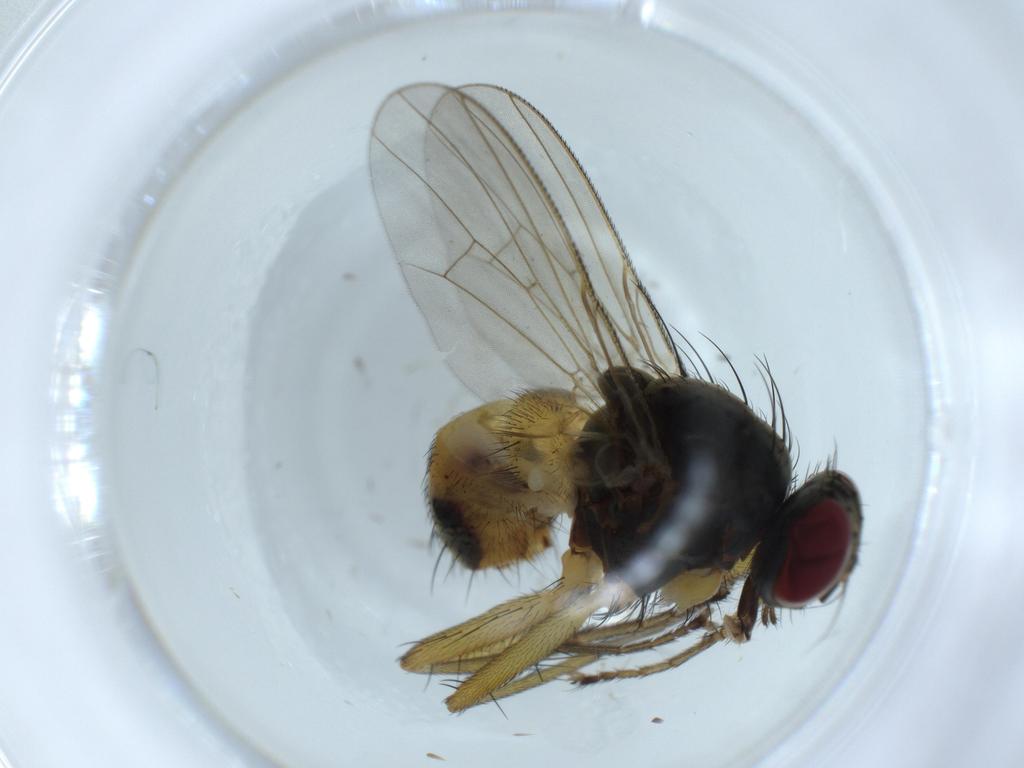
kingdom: Animalia
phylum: Arthropoda
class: Insecta
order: Diptera
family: Muscidae
